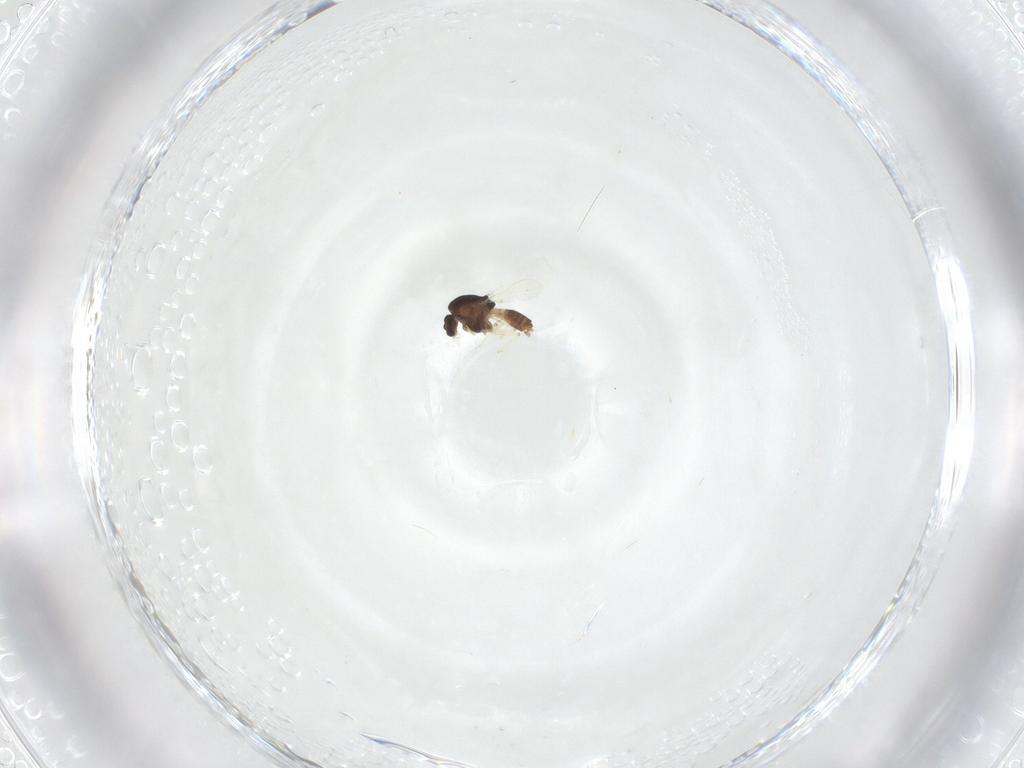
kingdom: Animalia
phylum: Arthropoda
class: Insecta
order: Diptera
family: Chironomidae
